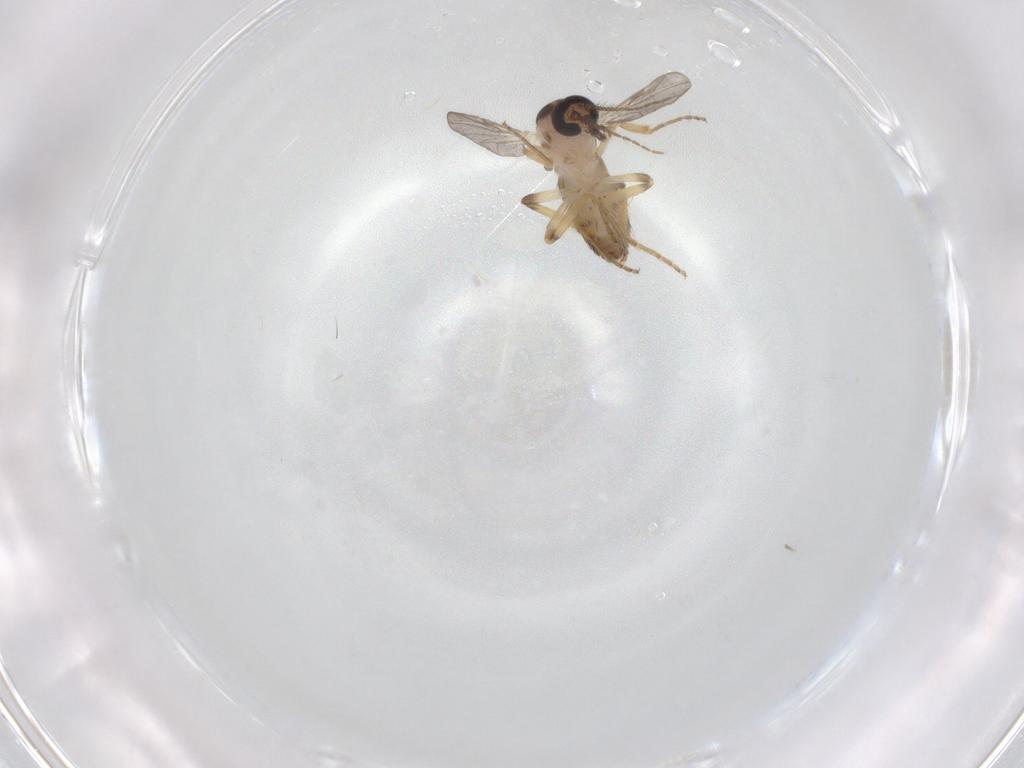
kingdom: Animalia
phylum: Arthropoda
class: Insecta
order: Diptera
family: Ceratopogonidae
